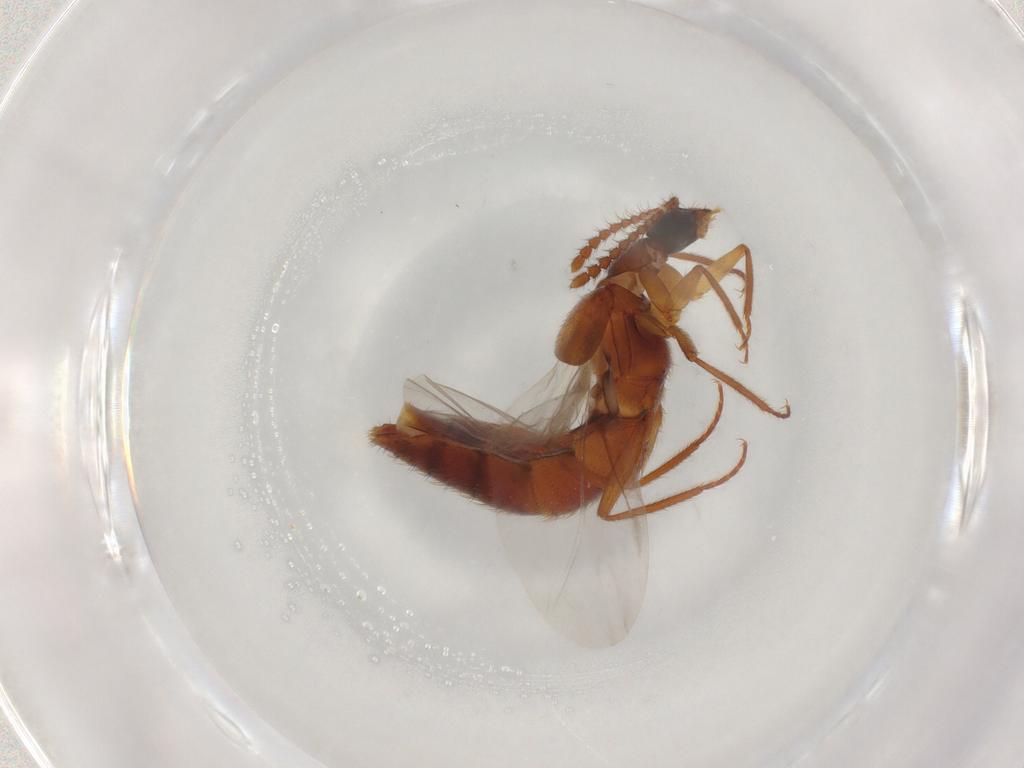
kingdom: Animalia
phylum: Arthropoda
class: Insecta
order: Coleoptera
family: Staphylinidae
